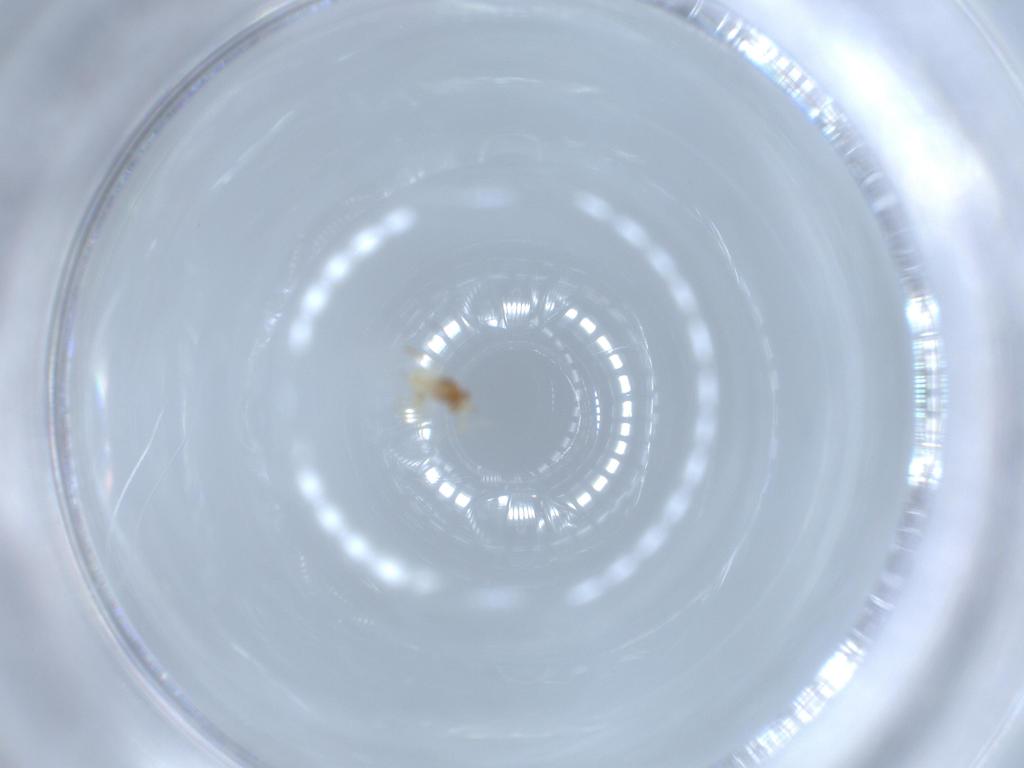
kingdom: Animalia
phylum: Arthropoda
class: Insecta
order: Hymenoptera
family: Aphelinidae
